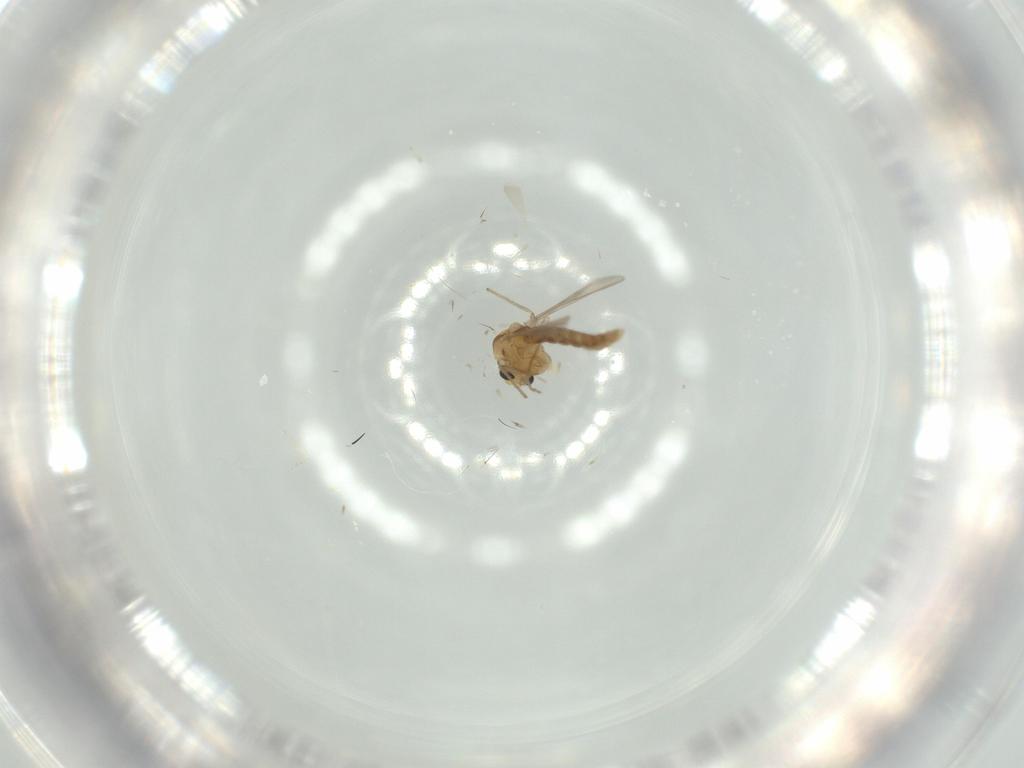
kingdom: Animalia
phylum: Arthropoda
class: Insecta
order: Diptera
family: Chironomidae
